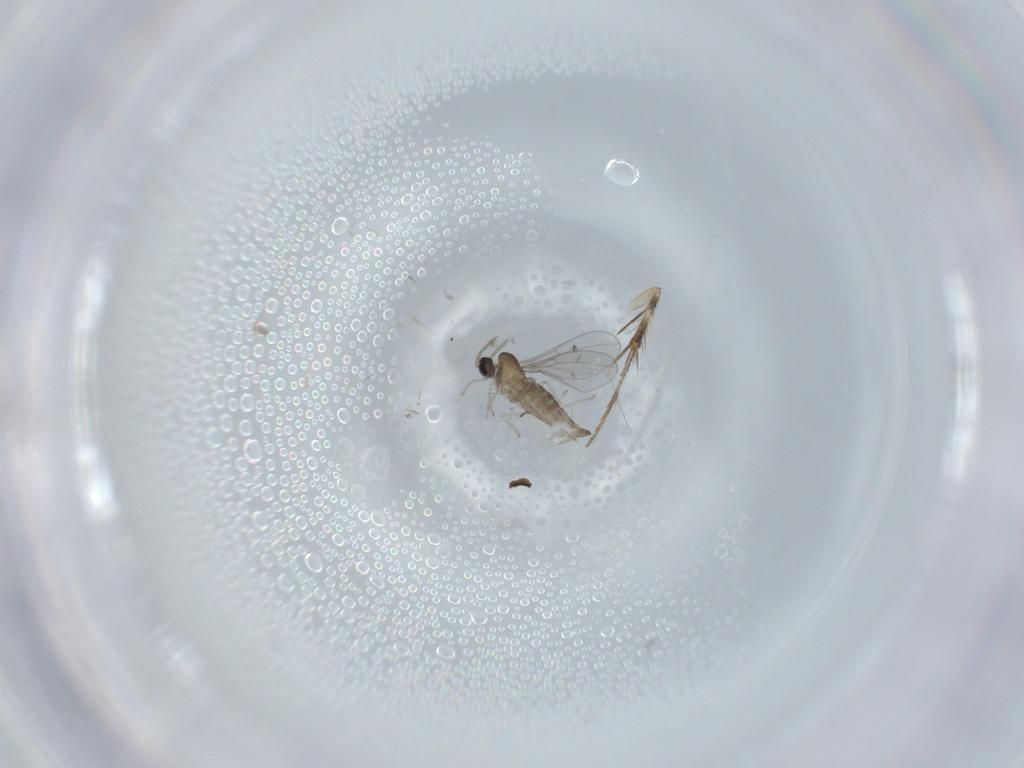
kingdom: Animalia
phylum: Arthropoda
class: Insecta
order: Diptera
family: Cecidomyiidae
